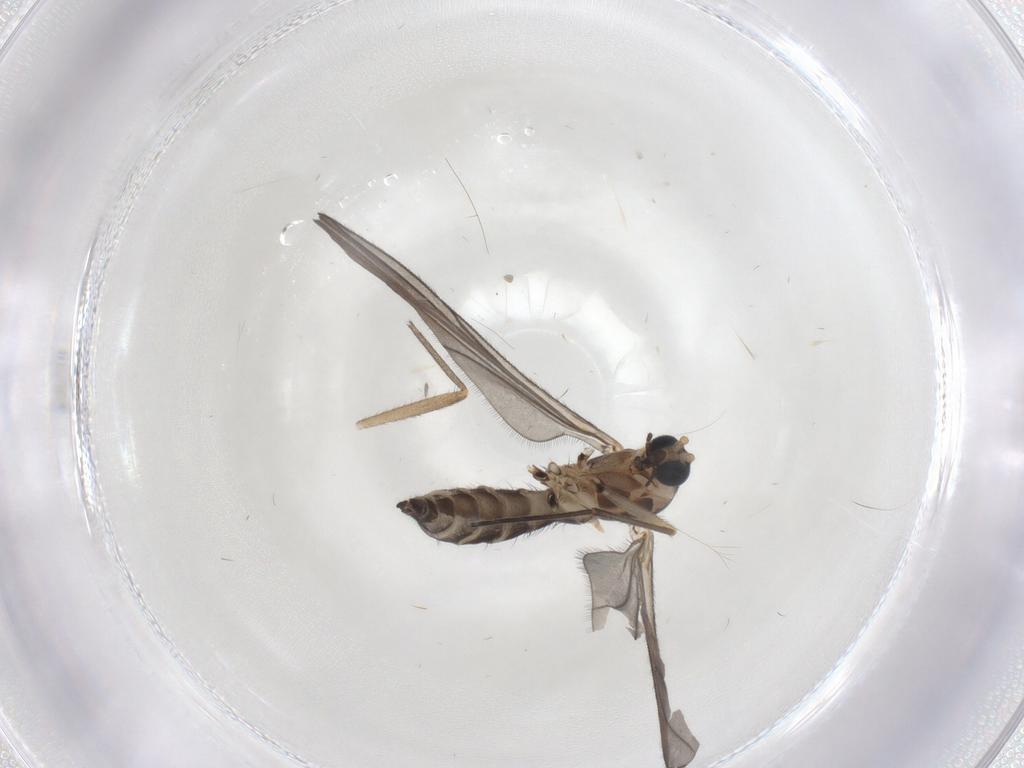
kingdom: Animalia
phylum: Arthropoda
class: Insecta
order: Diptera
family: Sciaridae
